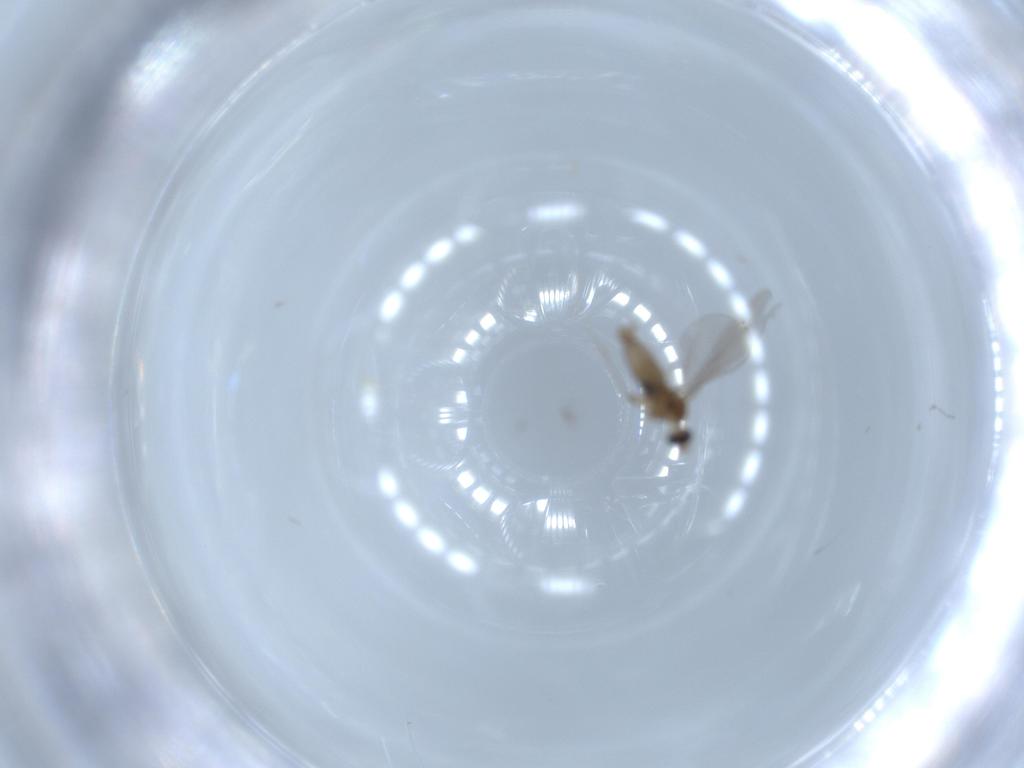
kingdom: Animalia
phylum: Arthropoda
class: Insecta
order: Diptera
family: Cecidomyiidae
